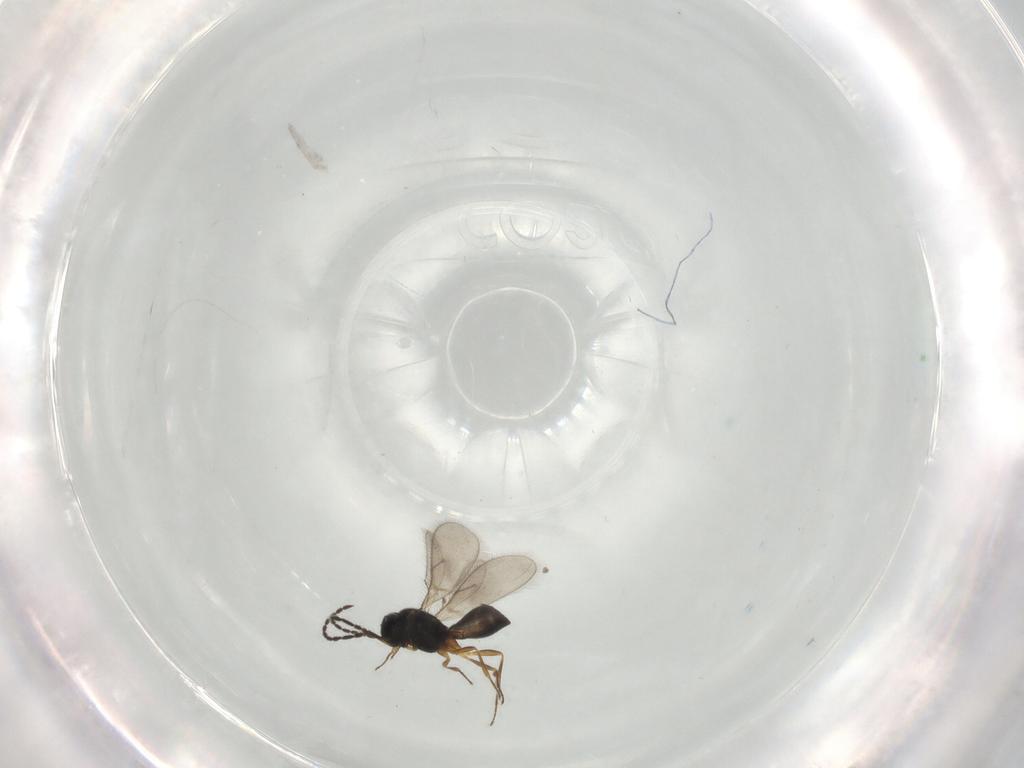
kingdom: Animalia
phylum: Arthropoda
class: Insecta
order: Hymenoptera
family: Scelionidae
